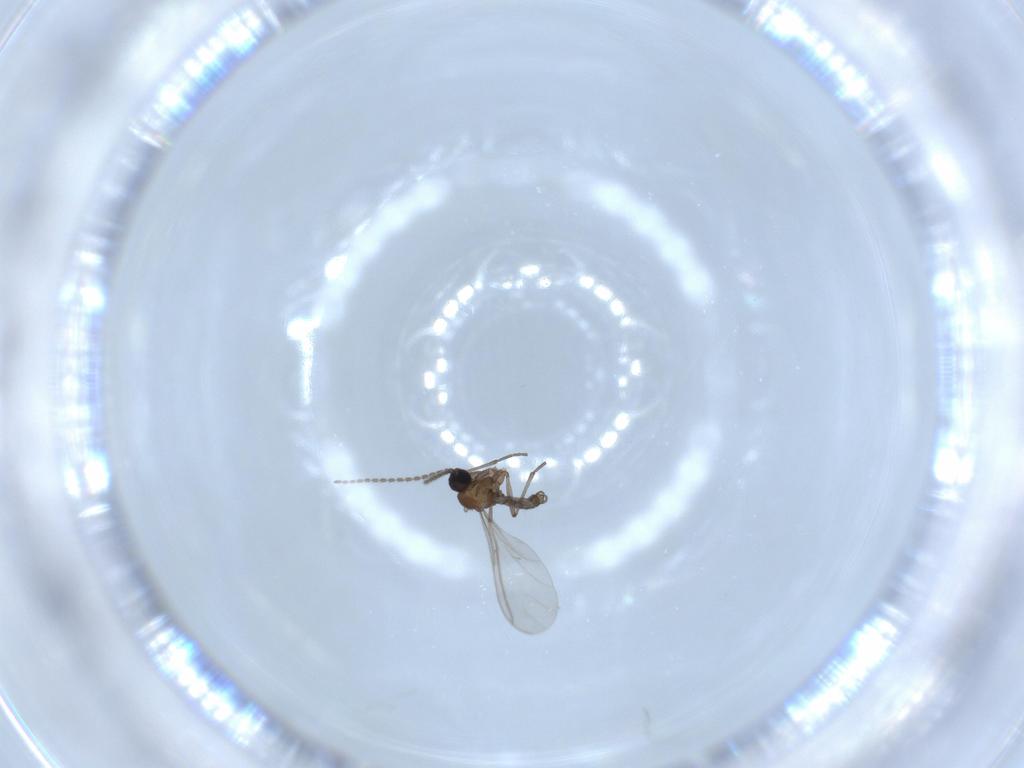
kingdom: Animalia
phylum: Arthropoda
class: Insecta
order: Diptera
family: Sciaridae
